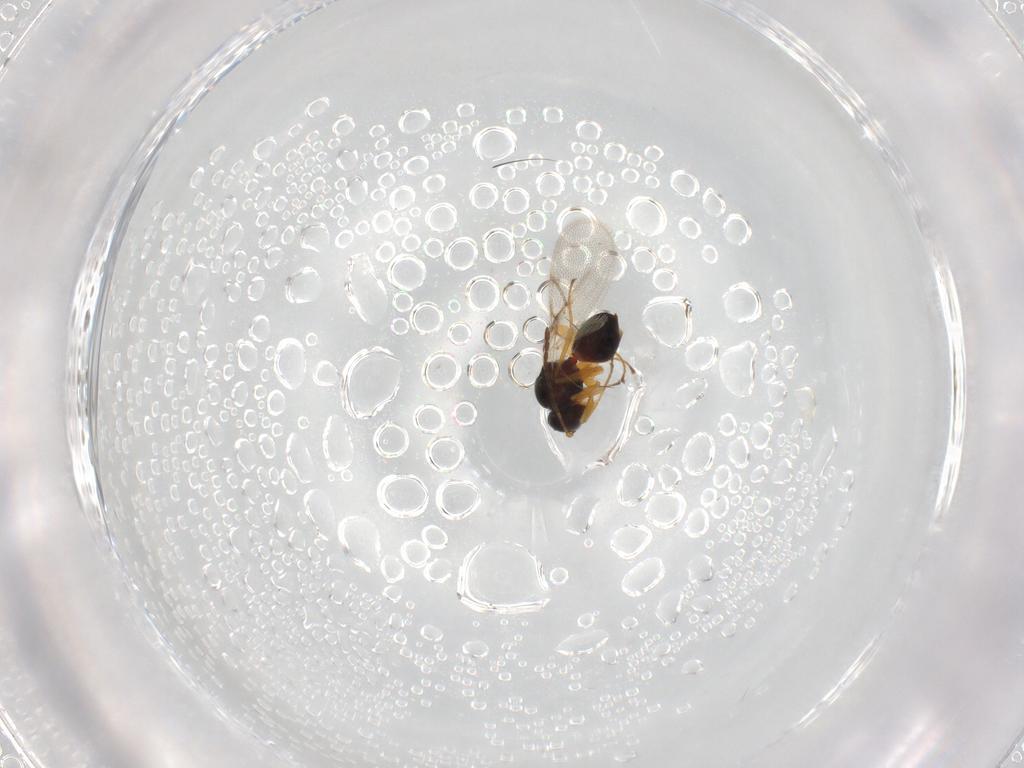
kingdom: Animalia
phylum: Arthropoda
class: Insecta
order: Hymenoptera
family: Figitidae
